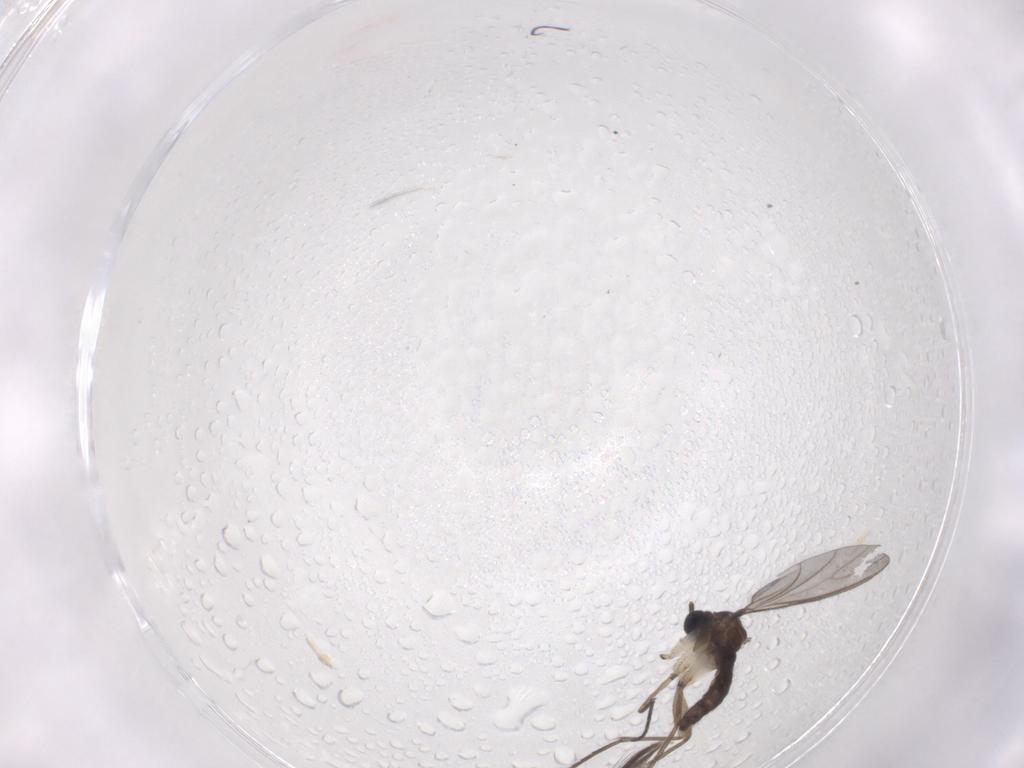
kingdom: Animalia
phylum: Arthropoda
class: Insecta
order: Diptera
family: Sciaridae
